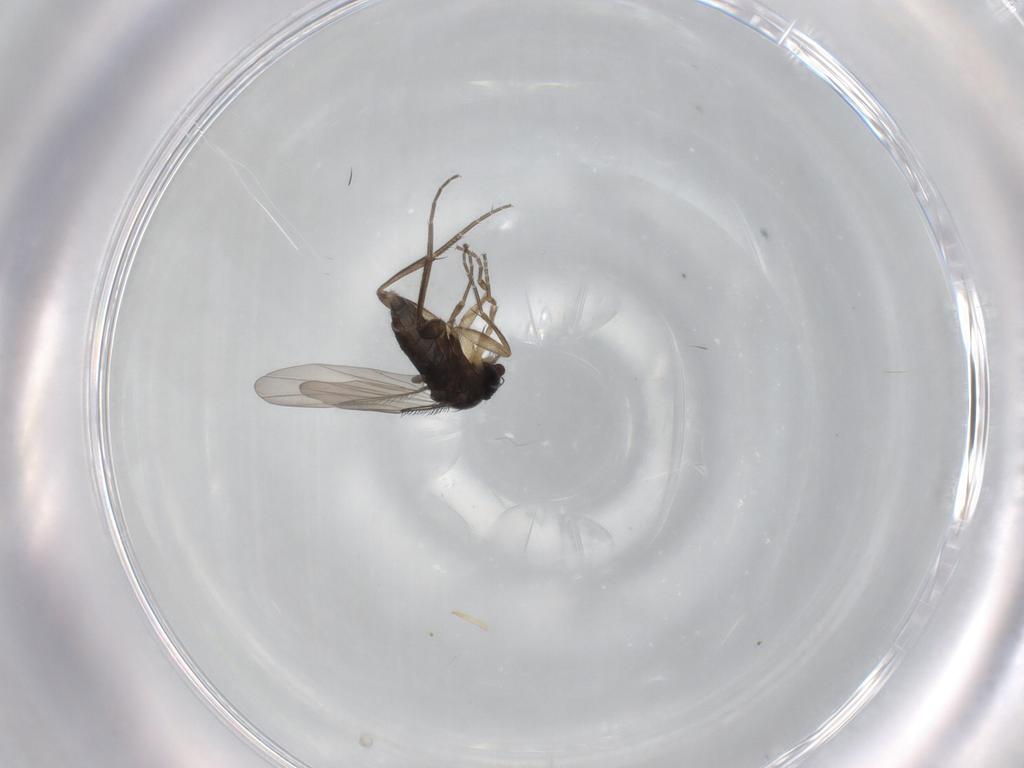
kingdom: Animalia
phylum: Arthropoda
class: Insecta
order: Diptera
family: Phoridae
